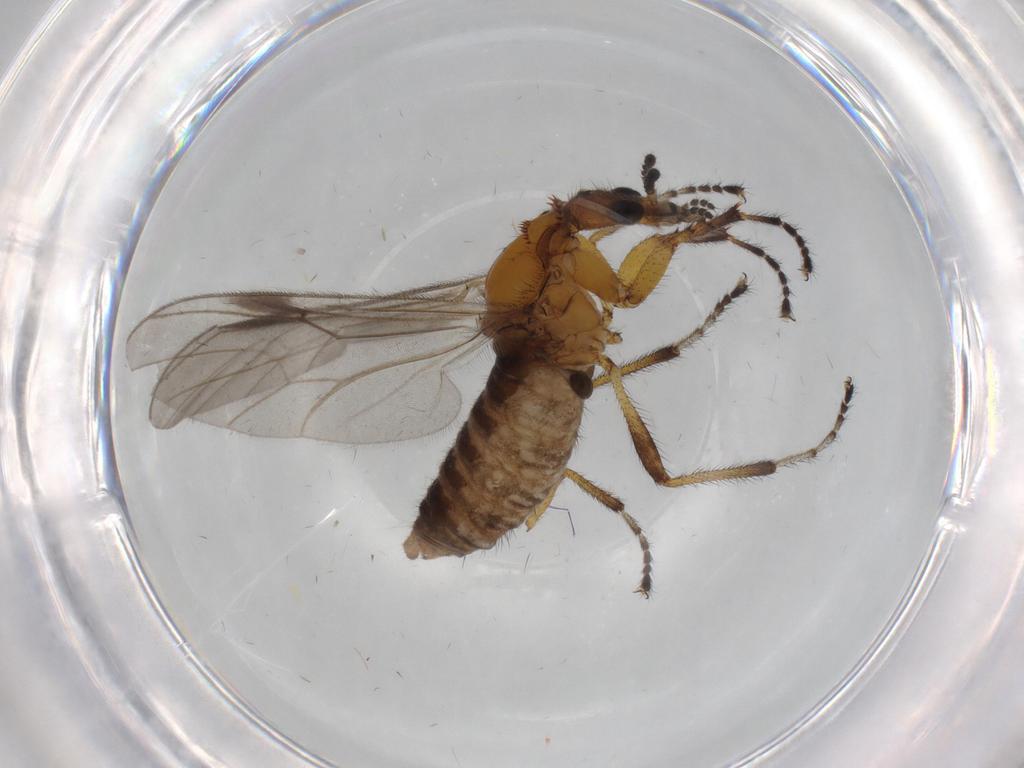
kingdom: Animalia
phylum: Arthropoda
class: Insecta
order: Diptera
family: Bibionidae
